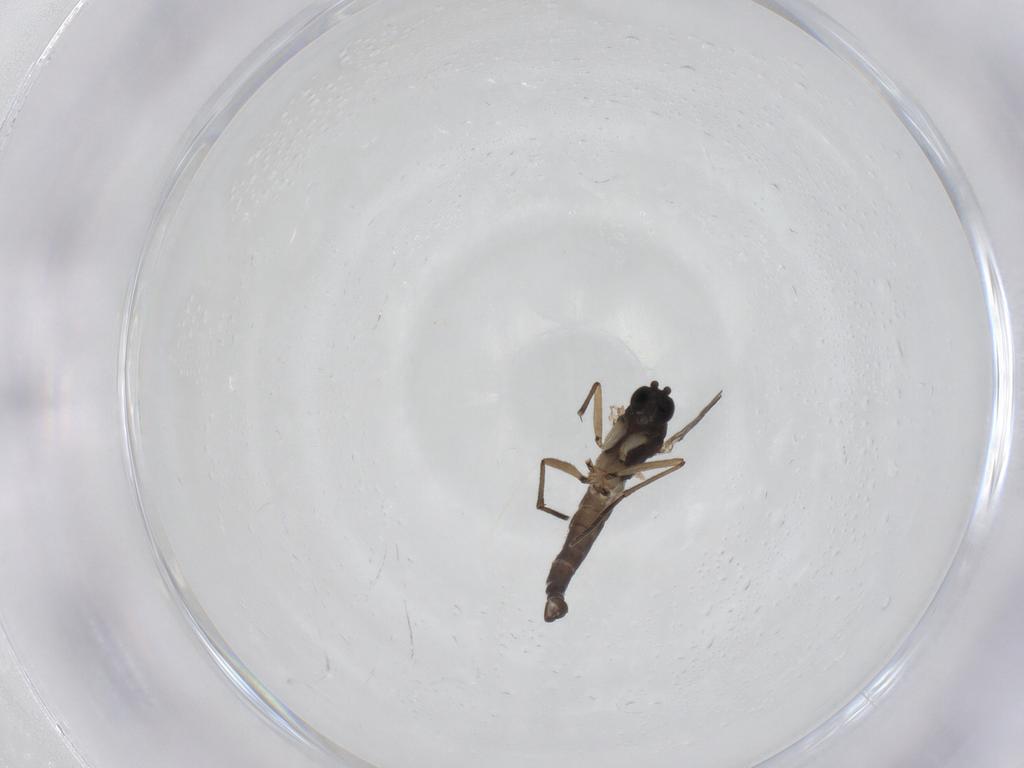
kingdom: Animalia
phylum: Arthropoda
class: Insecta
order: Diptera
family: Sciaridae
